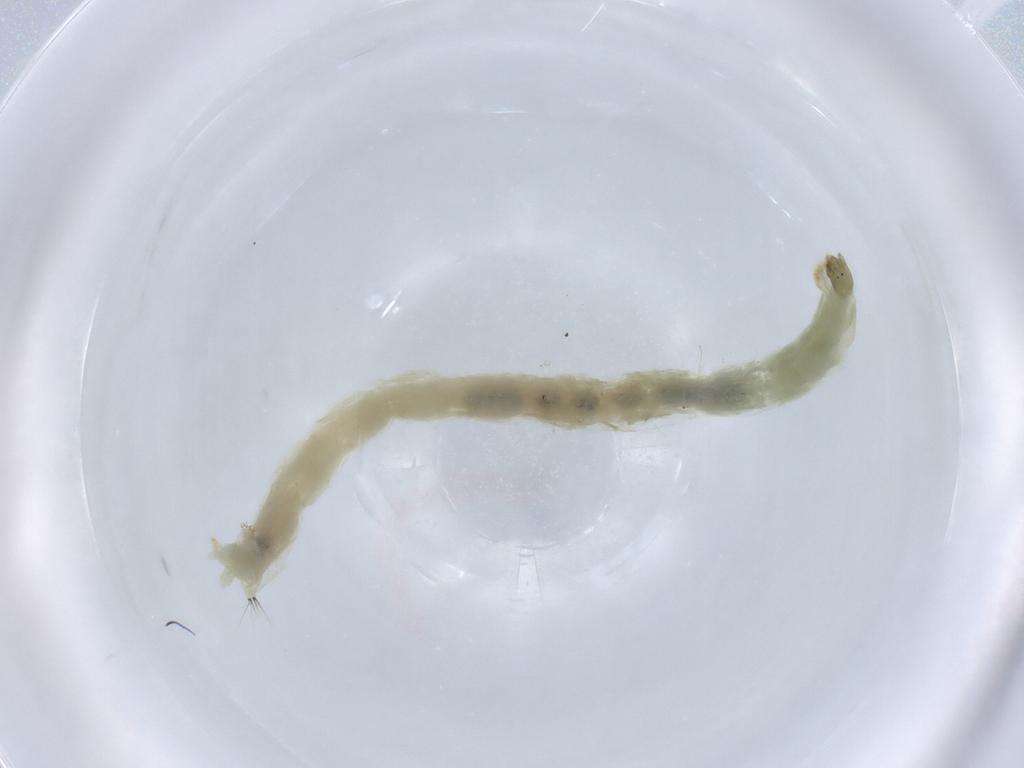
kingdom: Animalia
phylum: Arthropoda
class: Insecta
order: Diptera
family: Chironomidae
